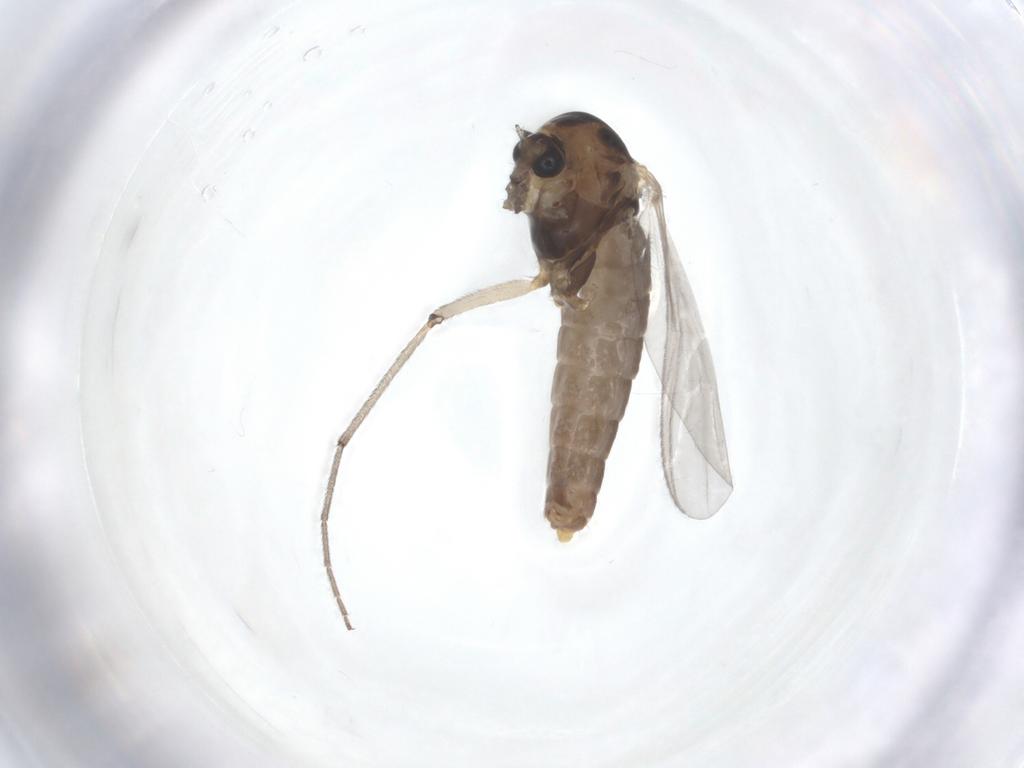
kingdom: Animalia
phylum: Arthropoda
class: Insecta
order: Diptera
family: Chironomidae
